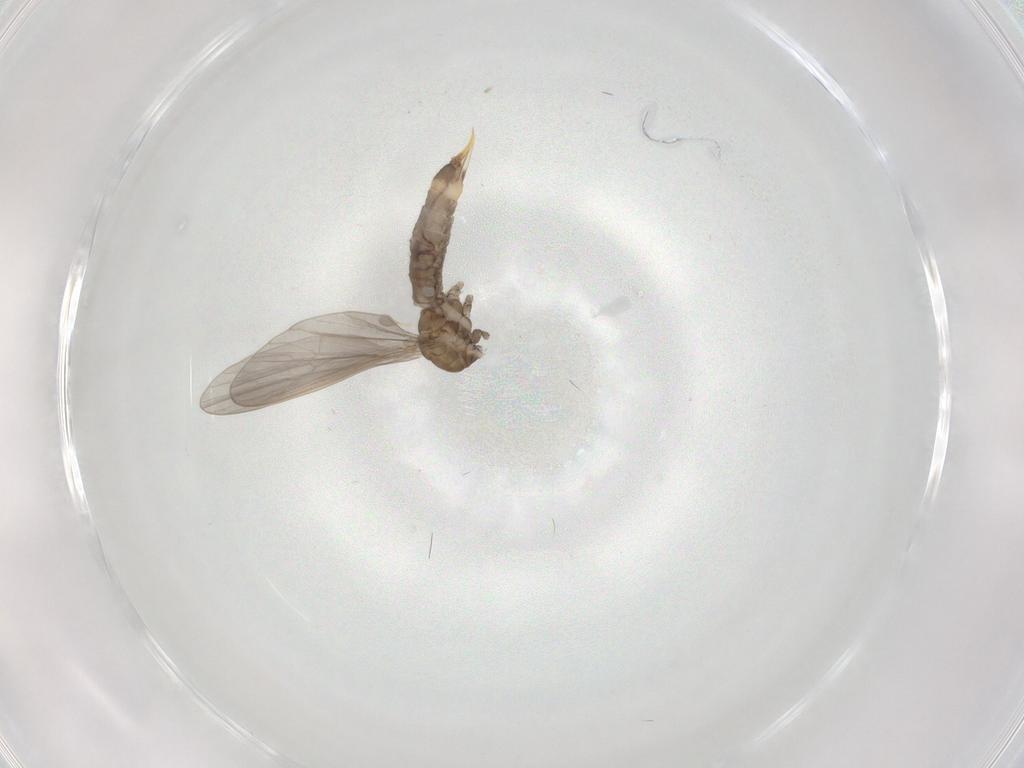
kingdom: Animalia
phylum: Arthropoda
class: Insecta
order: Diptera
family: Limoniidae
